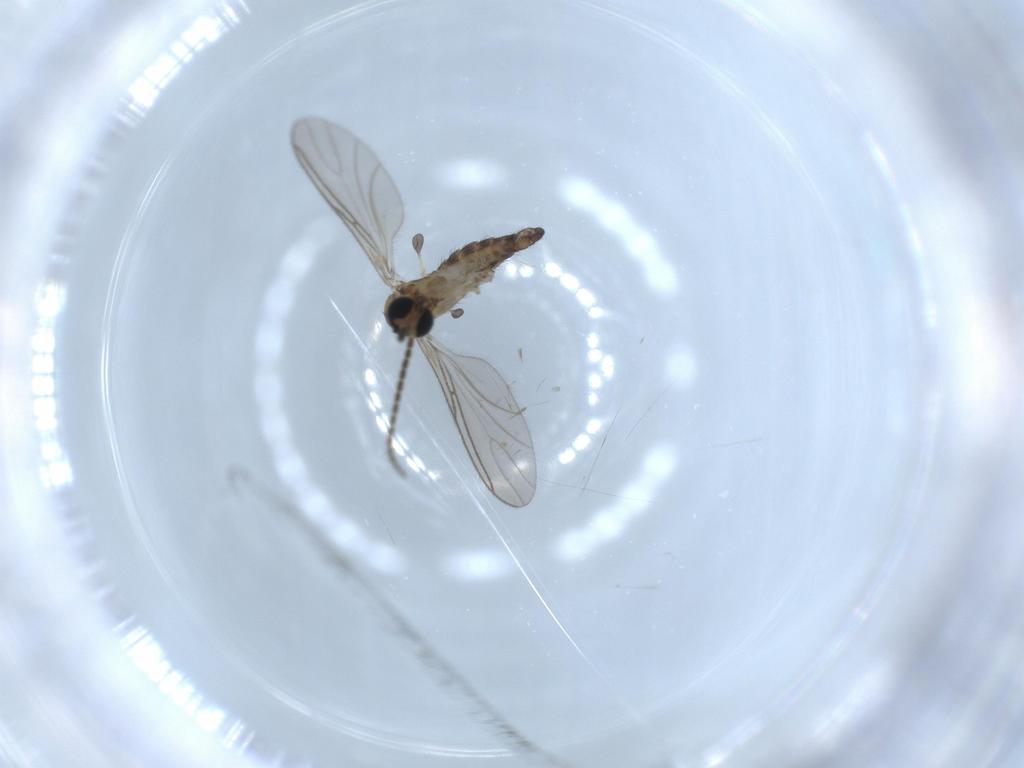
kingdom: Animalia
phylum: Arthropoda
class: Insecta
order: Diptera
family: Sciaridae
